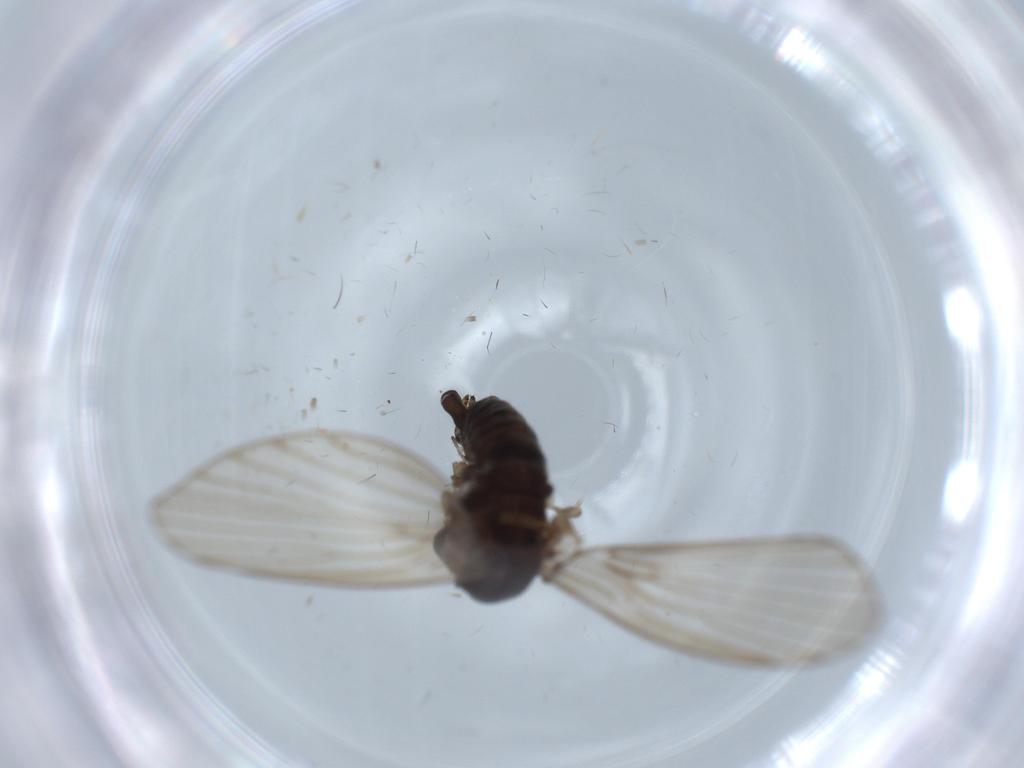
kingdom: Animalia
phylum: Arthropoda
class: Insecta
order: Diptera
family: Psychodidae
